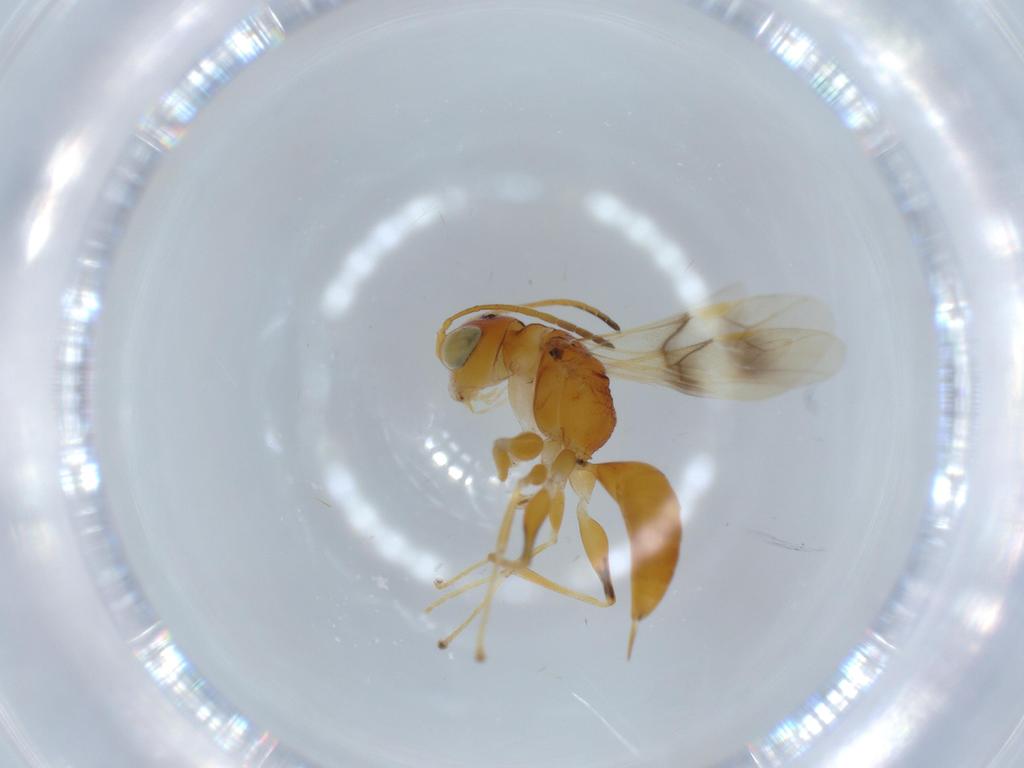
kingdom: Animalia
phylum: Arthropoda
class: Insecta
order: Hymenoptera
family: Dryinidae
